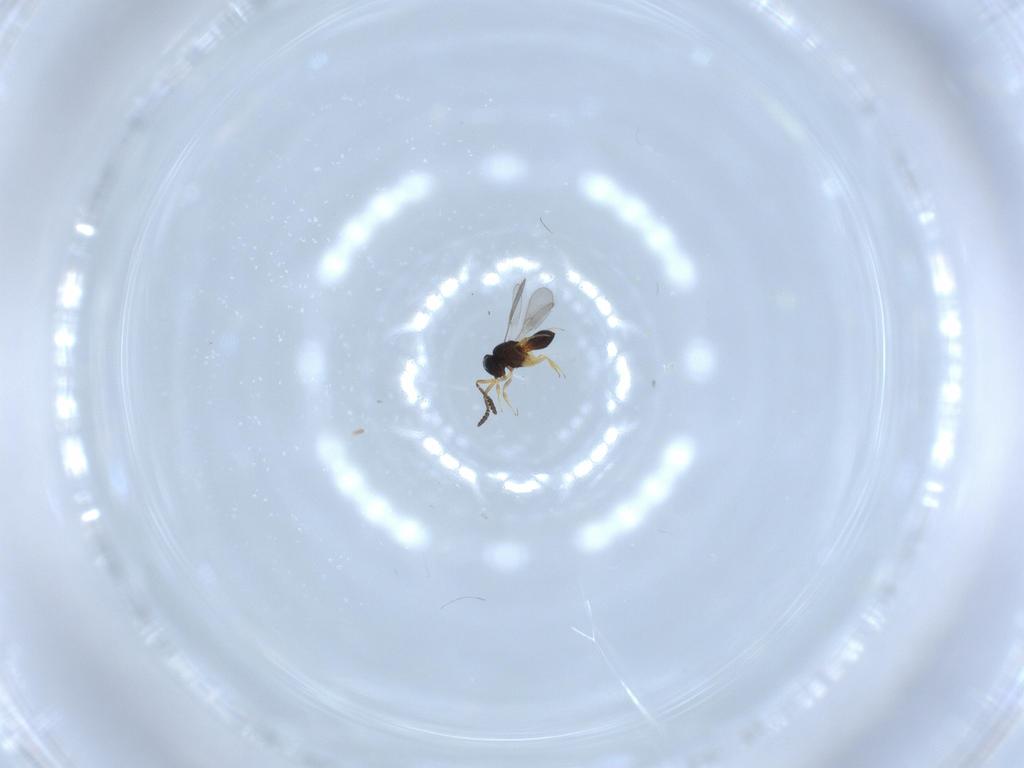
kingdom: Animalia
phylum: Arthropoda
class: Insecta
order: Hymenoptera
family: Scelionidae
